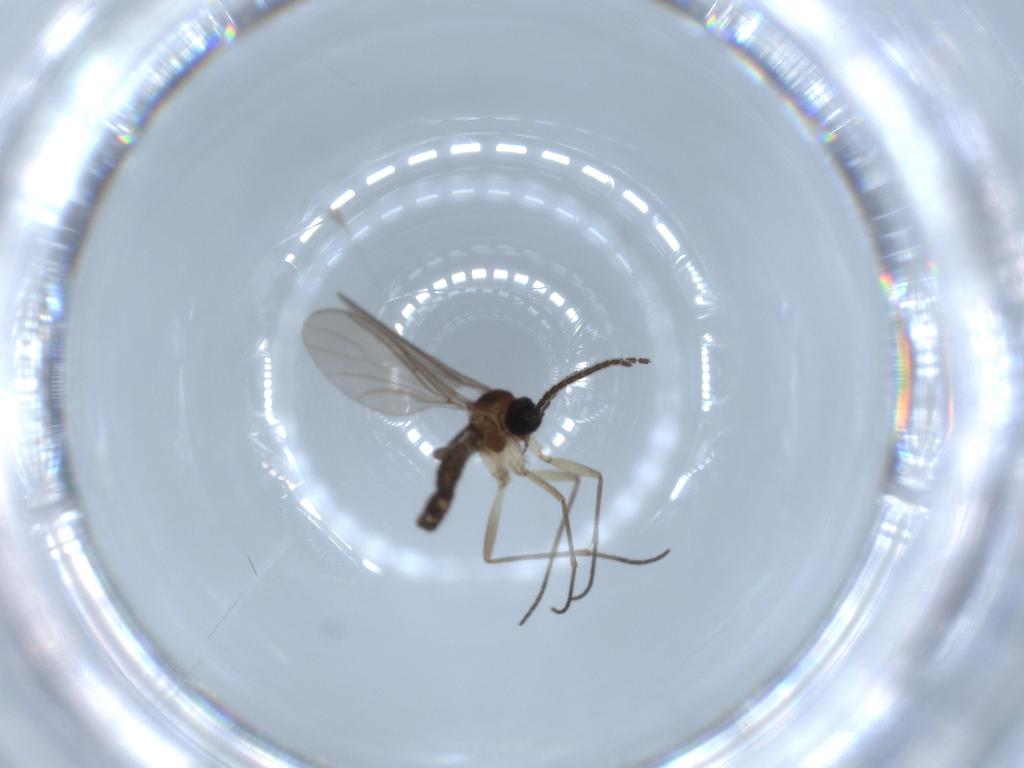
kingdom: Animalia
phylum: Arthropoda
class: Insecta
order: Diptera
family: Sciaridae
